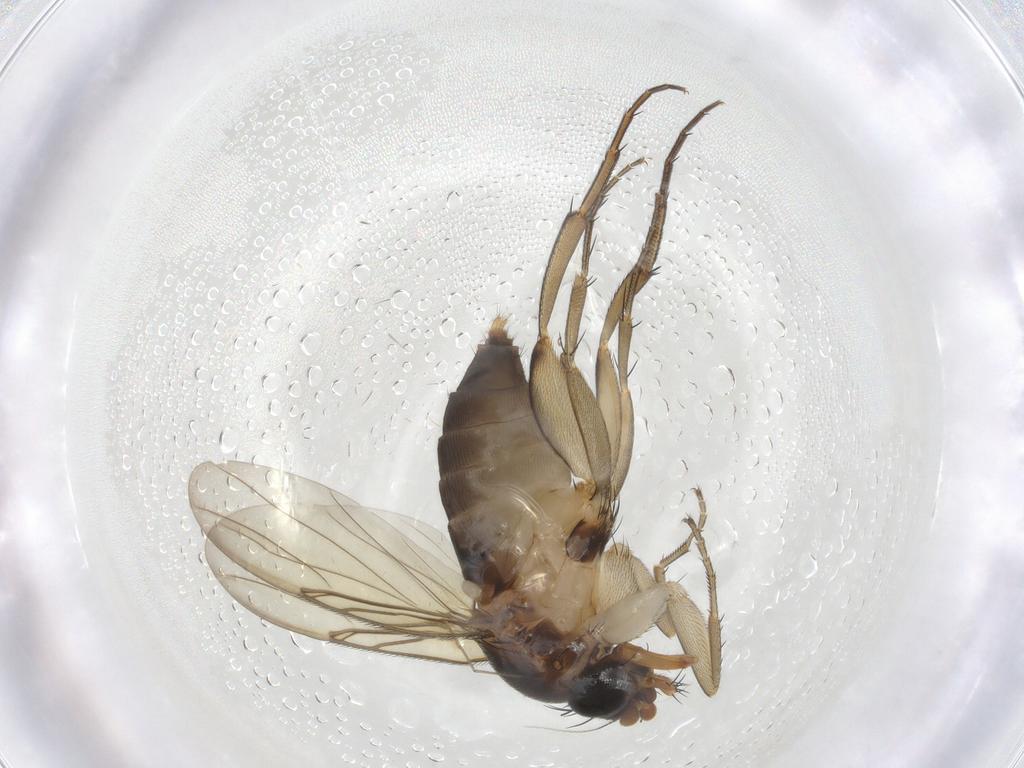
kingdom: Animalia
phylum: Arthropoda
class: Insecta
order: Diptera
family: Phoridae
